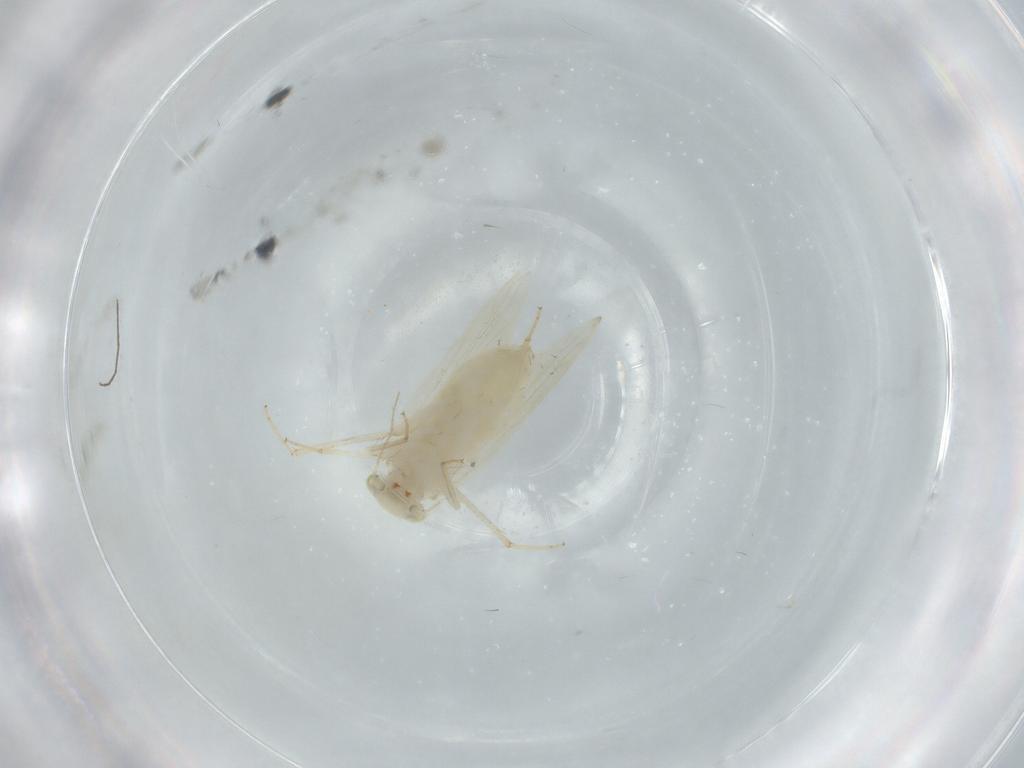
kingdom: Animalia
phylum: Arthropoda
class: Insecta
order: Psocodea
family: Lepidopsocidae
